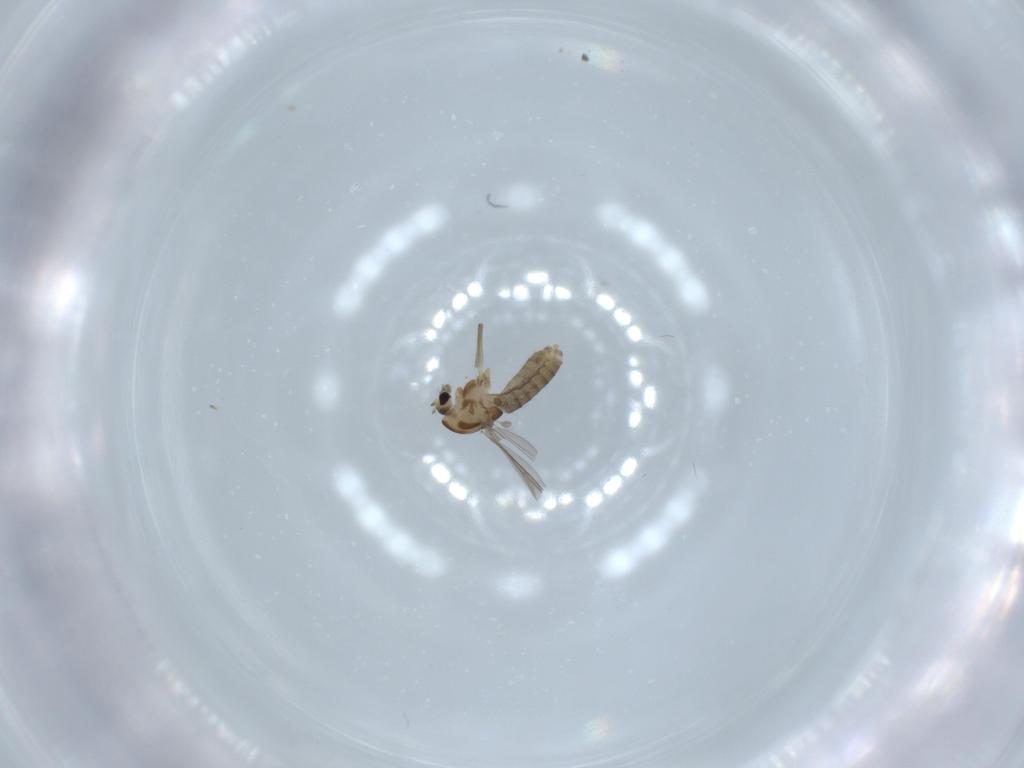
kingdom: Animalia
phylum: Arthropoda
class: Insecta
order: Diptera
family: Chironomidae
